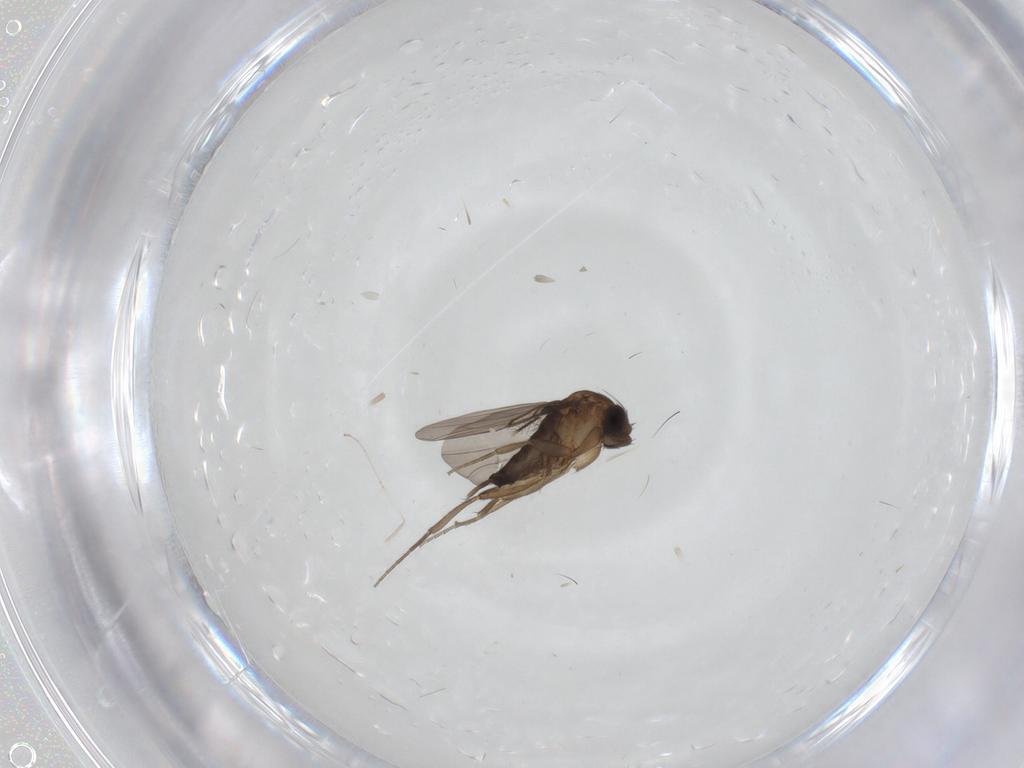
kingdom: Animalia
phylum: Arthropoda
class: Insecta
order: Diptera
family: Phoridae
